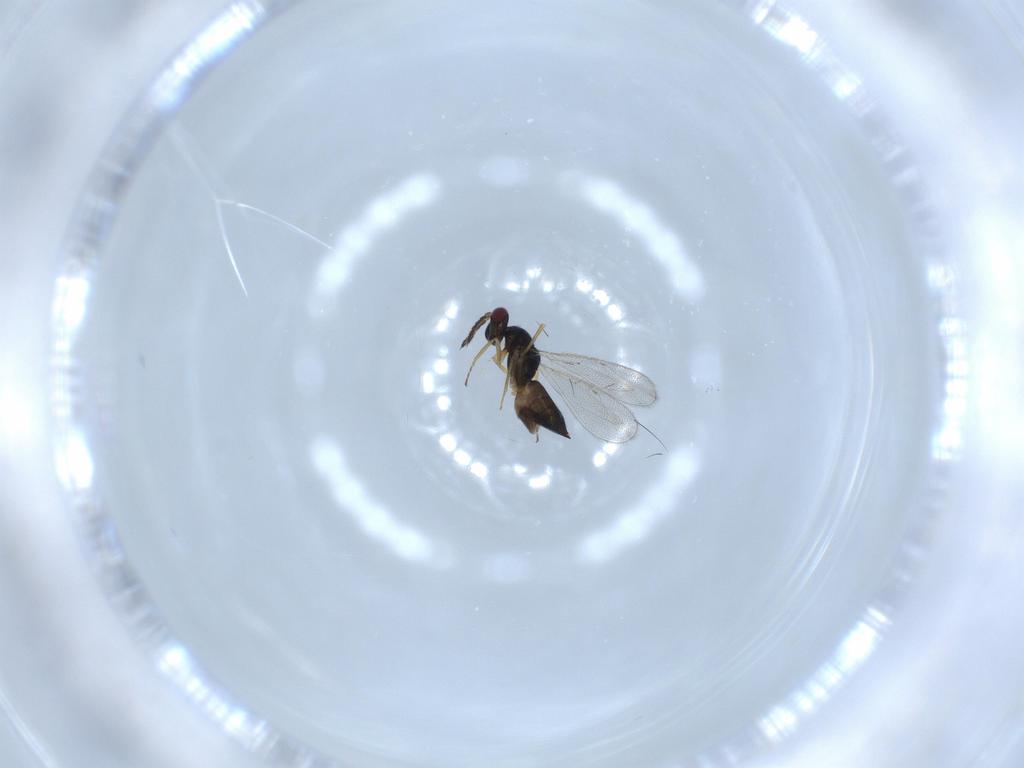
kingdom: Animalia
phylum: Arthropoda
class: Insecta
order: Hymenoptera
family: Eulophidae
